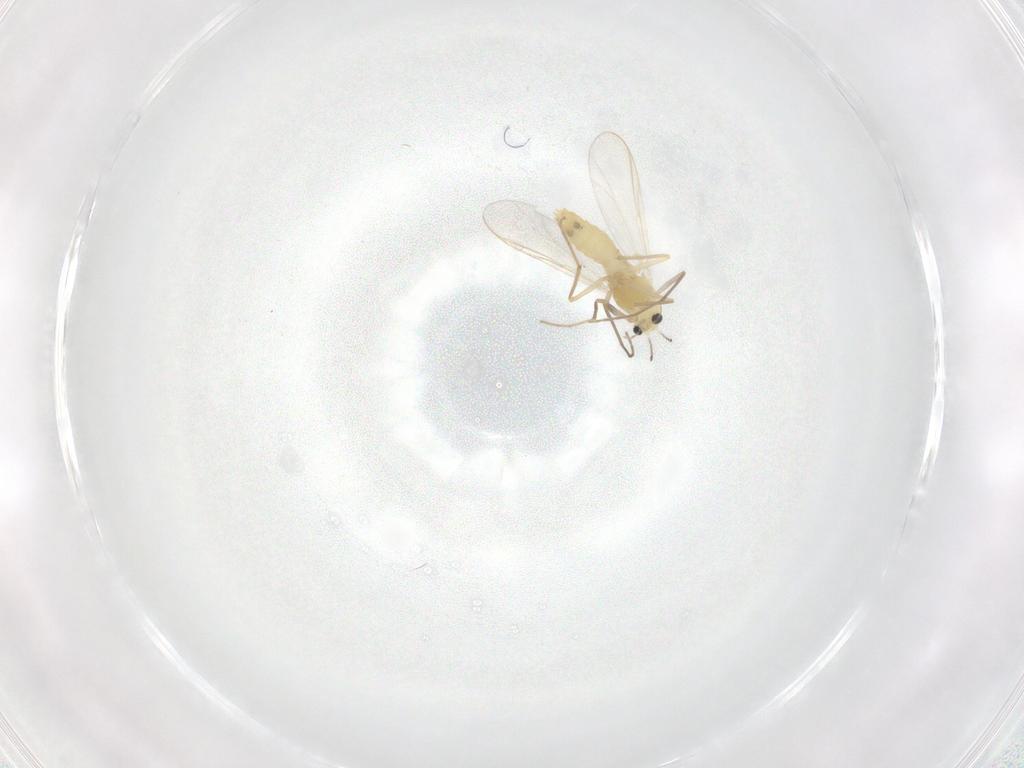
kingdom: Animalia
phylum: Arthropoda
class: Insecta
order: Diptera
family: Chironomidae
